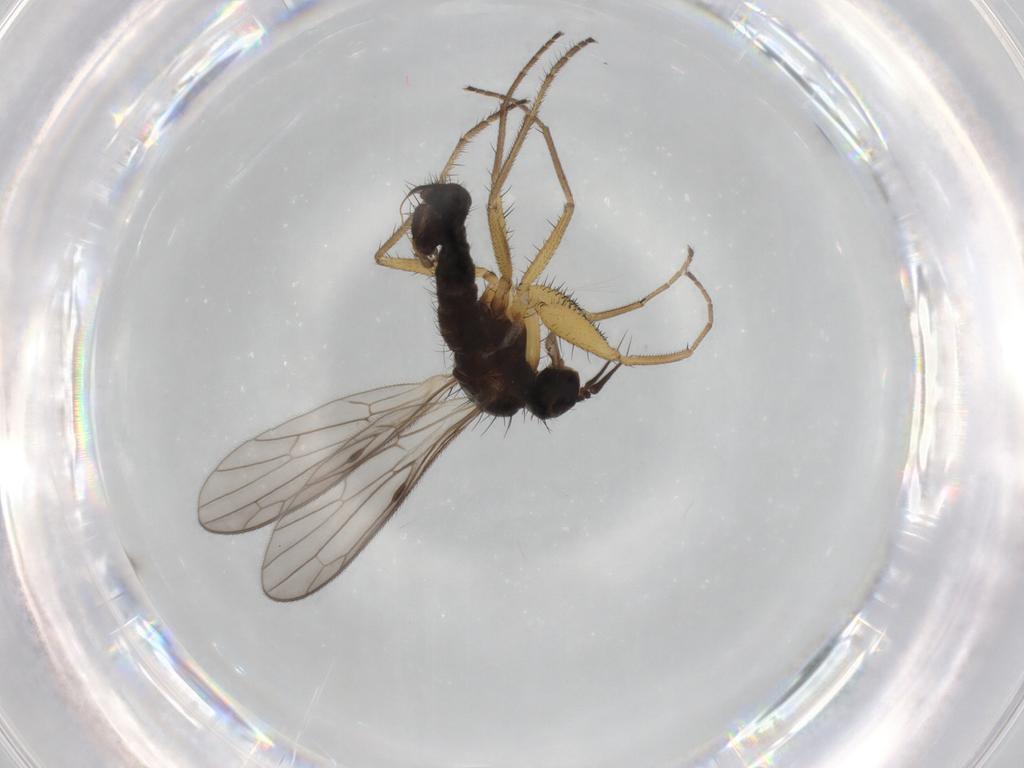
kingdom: Animalia
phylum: Arthropoda
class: Insecta
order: Diptera
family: Empididae
